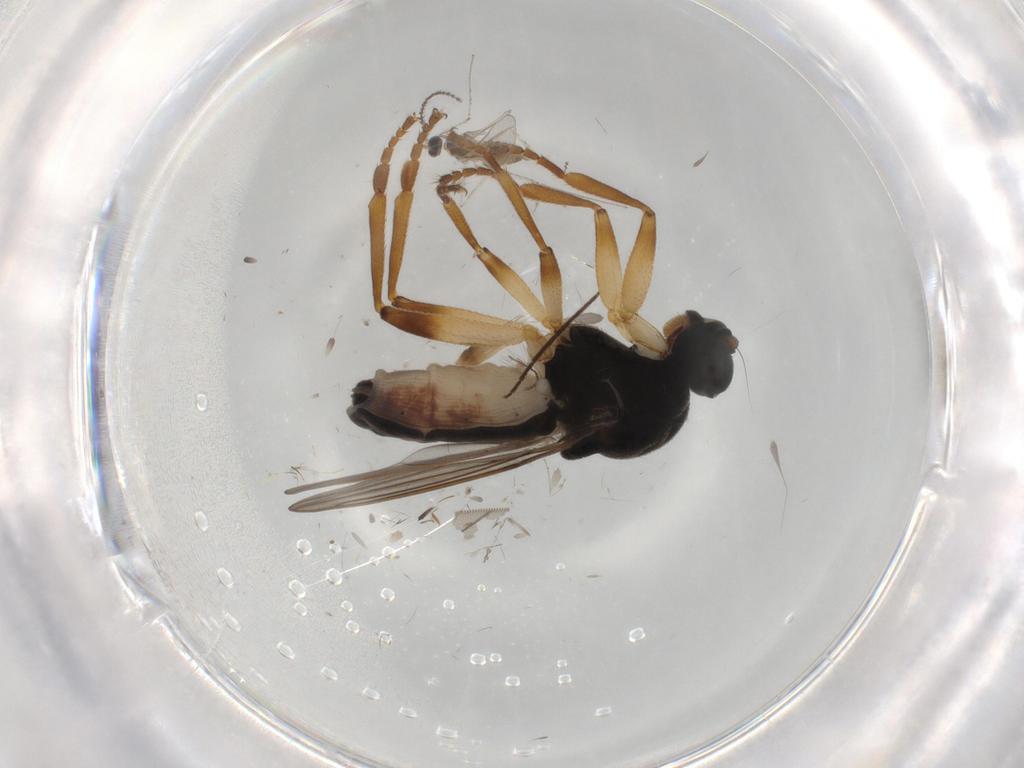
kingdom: Animalia
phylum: Arthropoda
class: Insecta
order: Diptera
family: Sphaeroceridae
